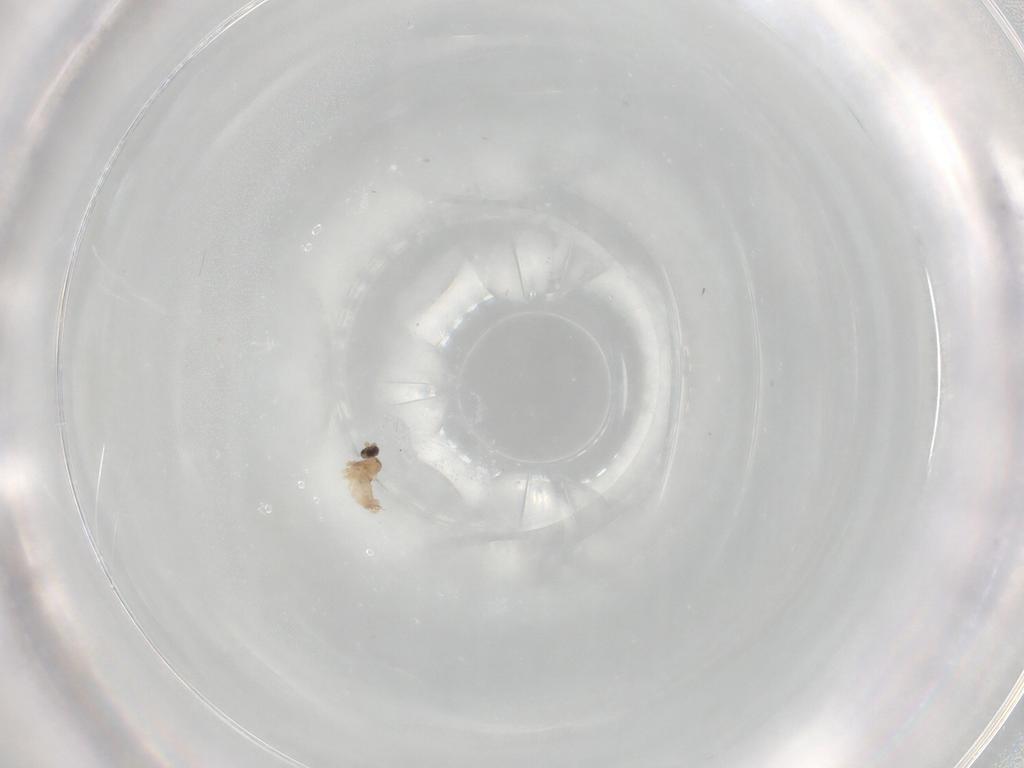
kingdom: Animalia
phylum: Arthropoda
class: Insecta
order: Diptera
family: Cecidomyiidae
